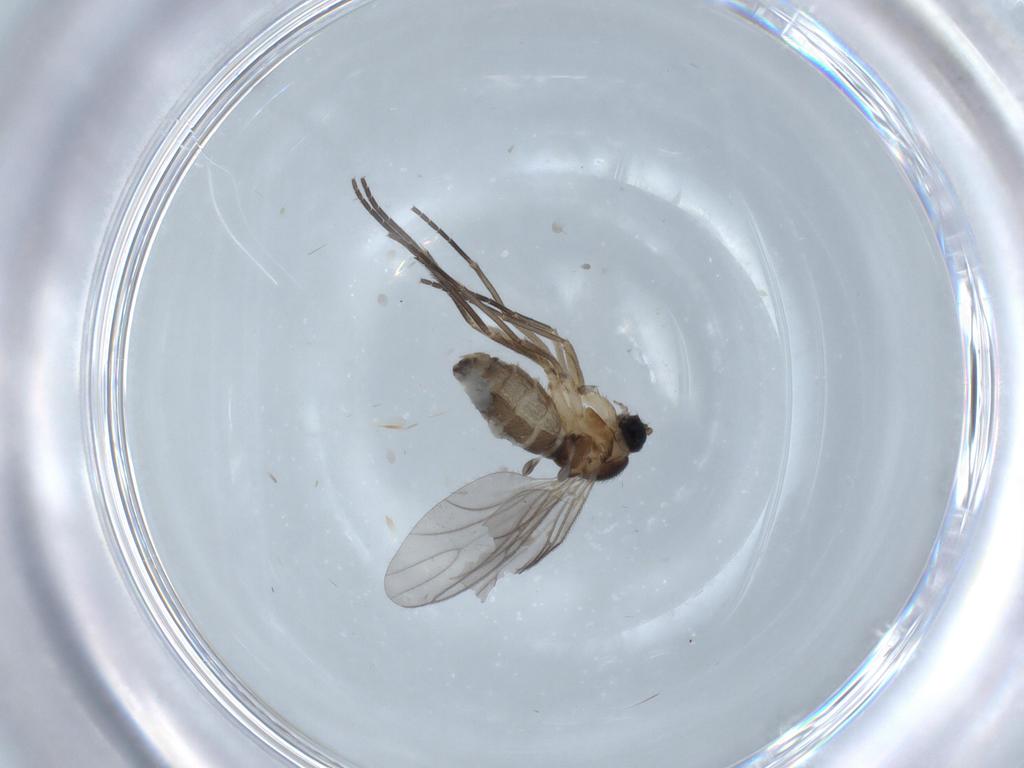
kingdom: Animalia
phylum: Arthropoda
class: Insecta
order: Diptera
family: Sciaridae
